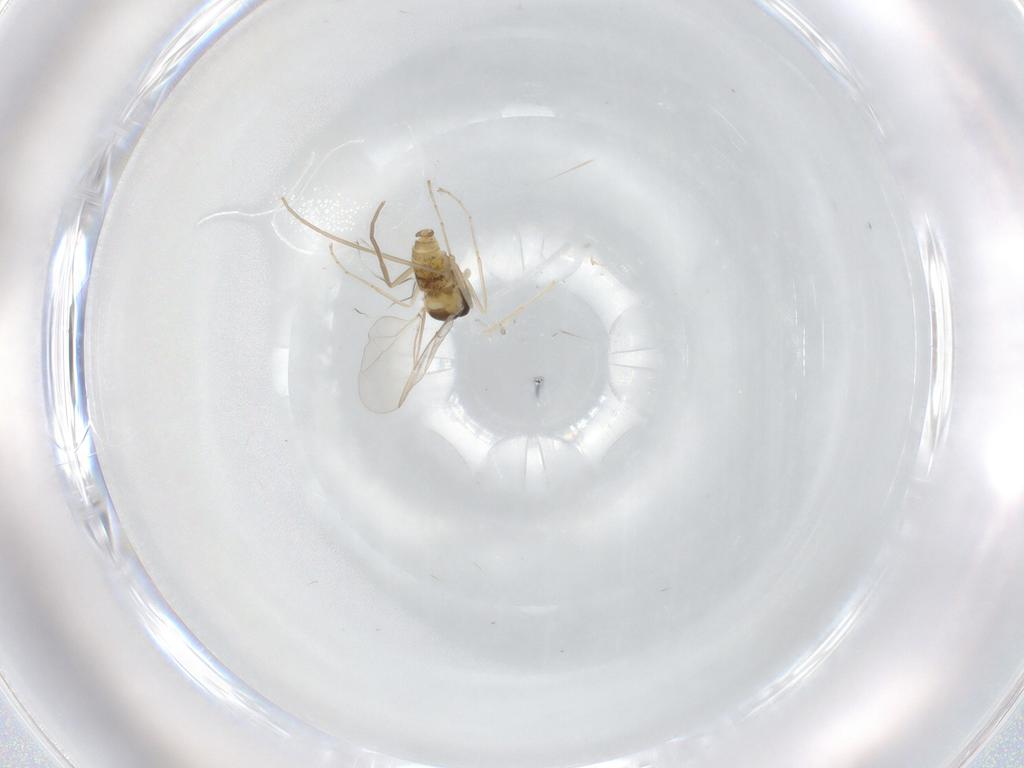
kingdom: Animalia
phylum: Arthropoda
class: Insecta
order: Diptera
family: Cecidomyiidae
